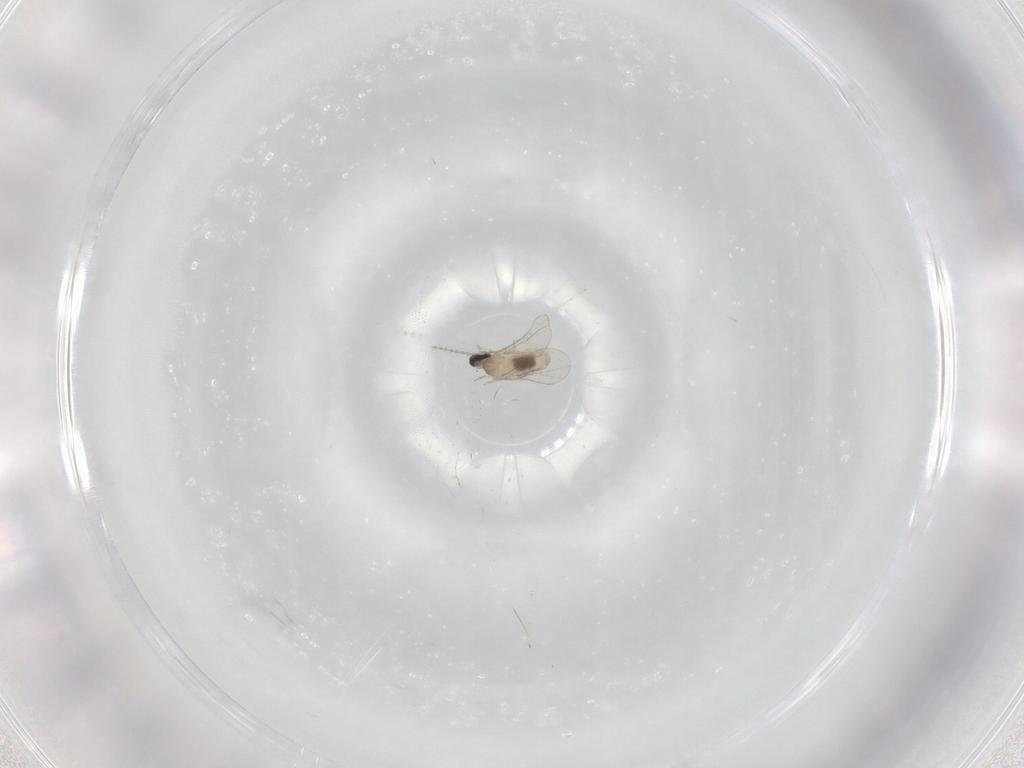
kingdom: Animalia
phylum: Arthropoda
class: Insecta
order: Diptera
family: Cecidomyiidae
